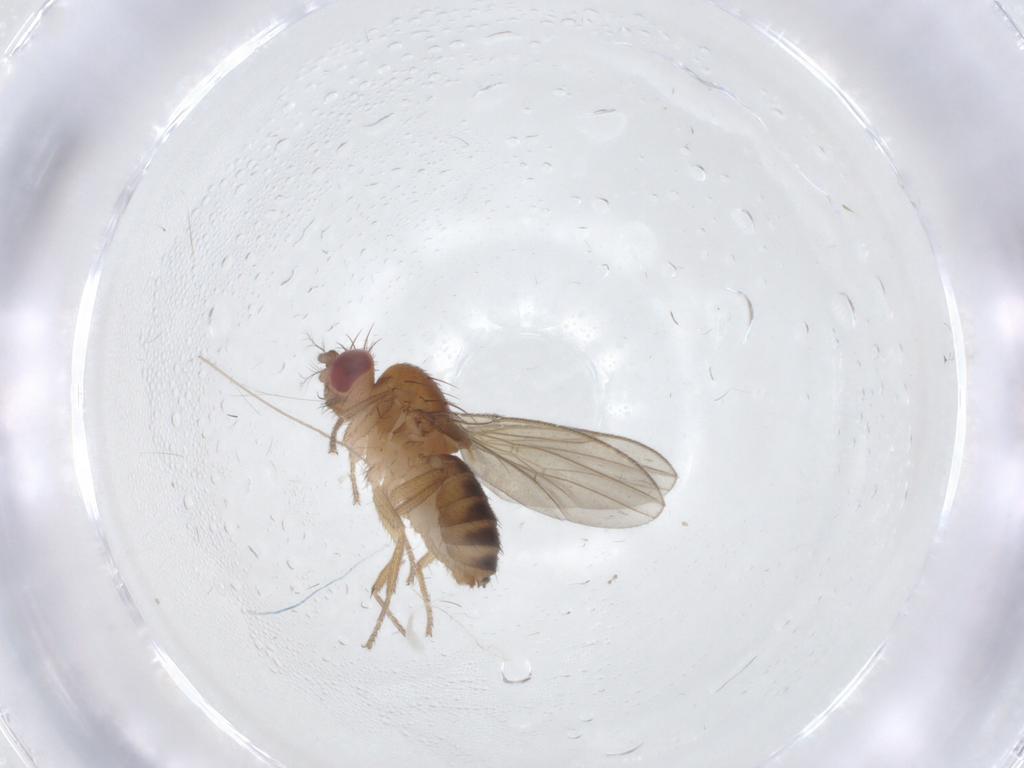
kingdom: Animalia
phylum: Arthropoda
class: Insecta
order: Diptera
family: Drosophilidae
